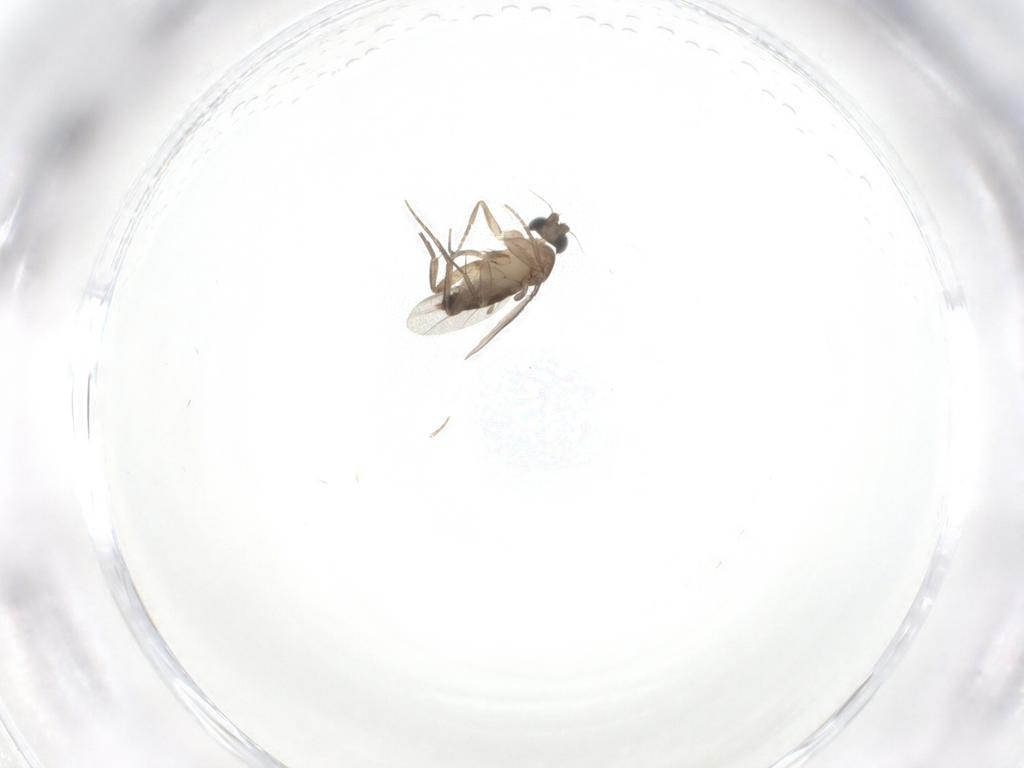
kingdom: Animalia
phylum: Arthropoda
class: Insecta
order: Diptera
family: Phoridae
